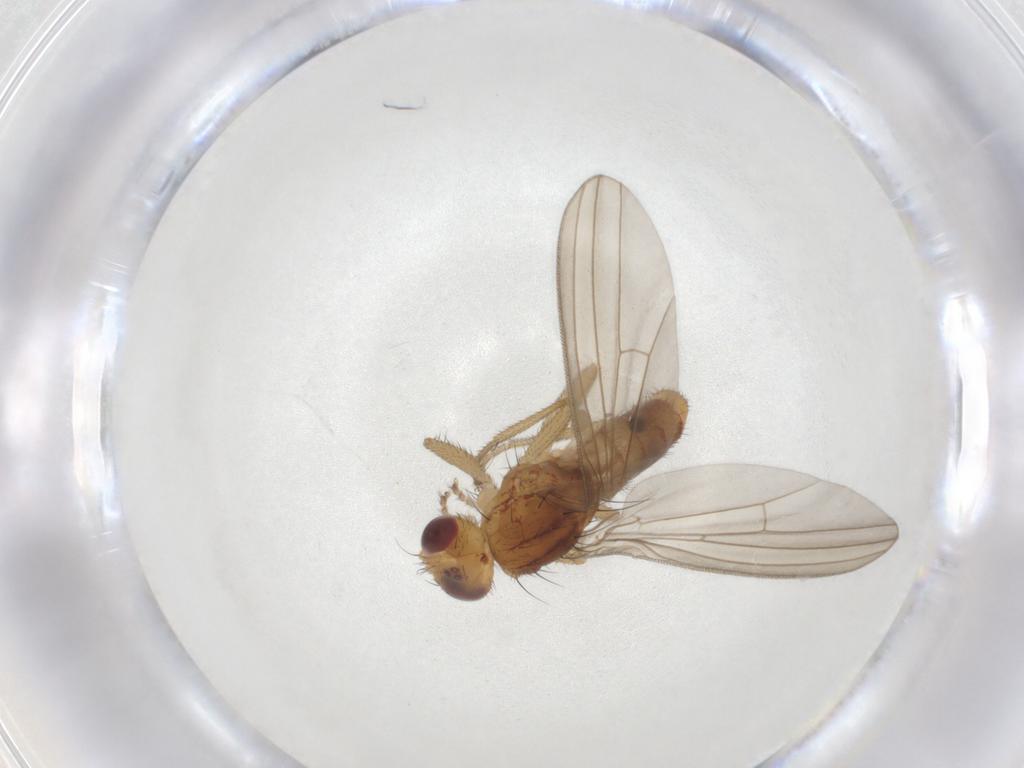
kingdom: Animalia
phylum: Arthropoda
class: Insecta
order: Diptera
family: Natalimyzidae
